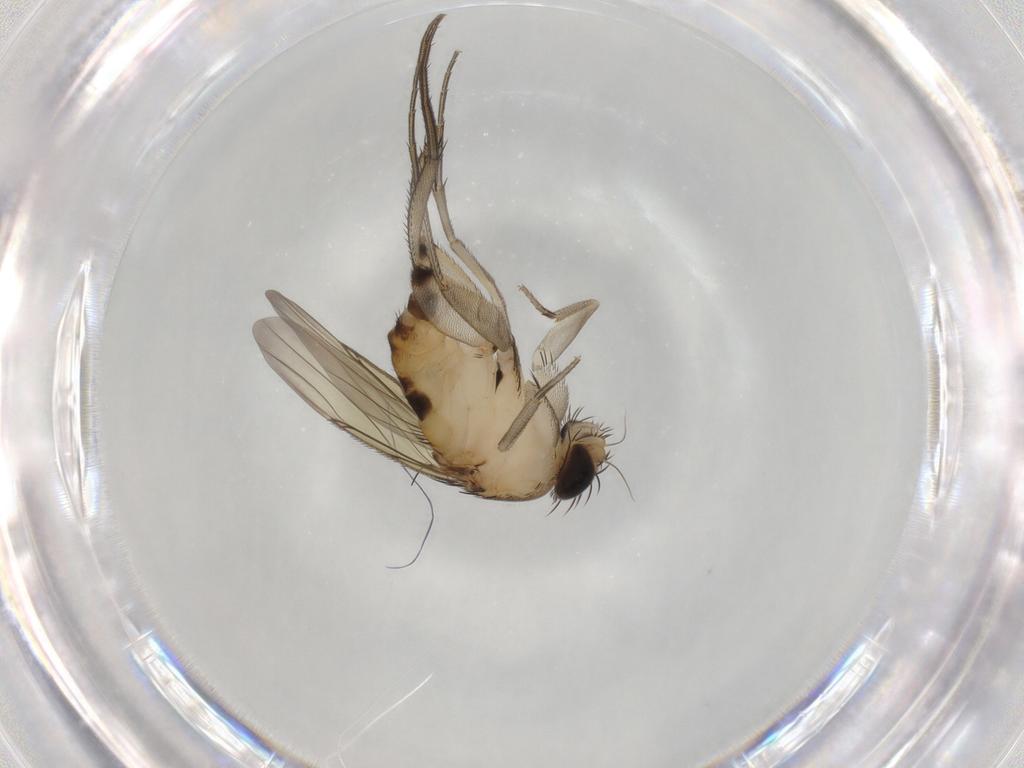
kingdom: Animalia
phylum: Arthropoda
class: Insecta
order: Diptera
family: Phoridae
